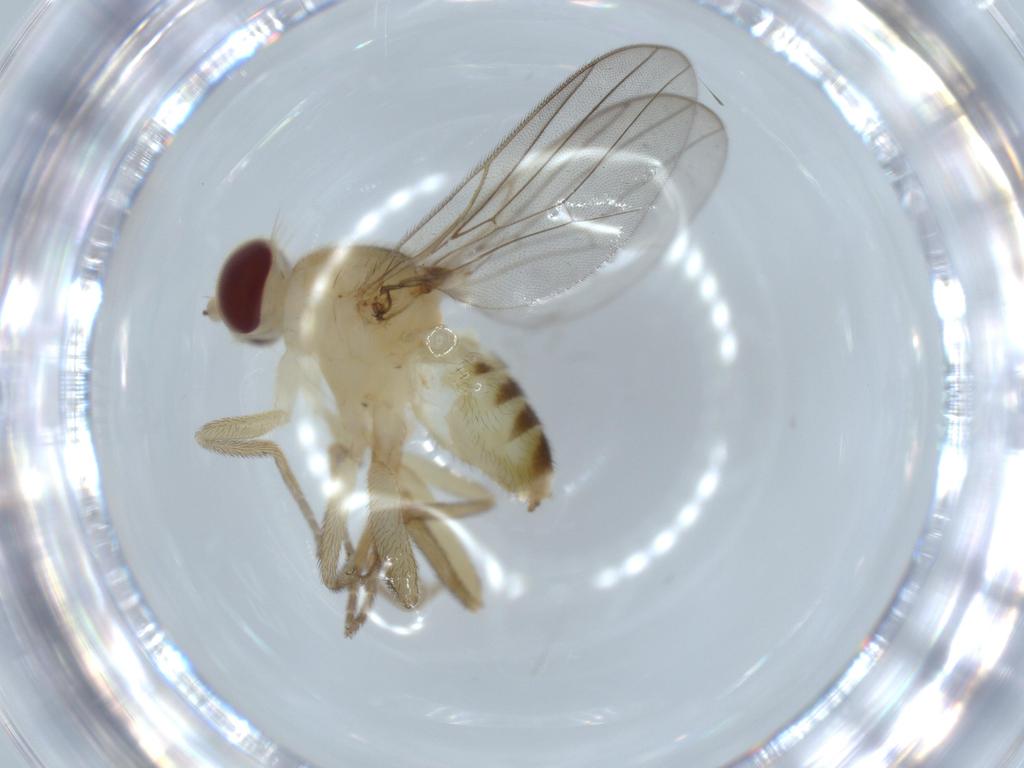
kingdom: Animalia
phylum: Arthropoda
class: Insecta
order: Diptera
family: Chloropidae
